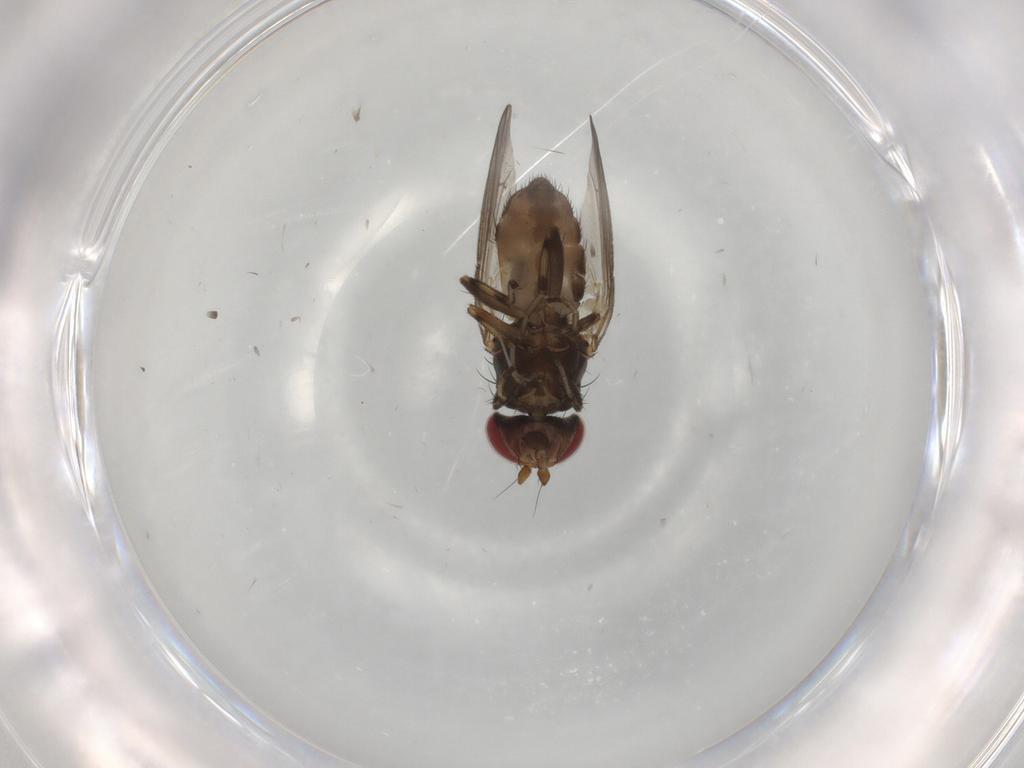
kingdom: Animalia
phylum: Arthropoda
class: Insecta
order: Diptera
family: Heleomyzidae
